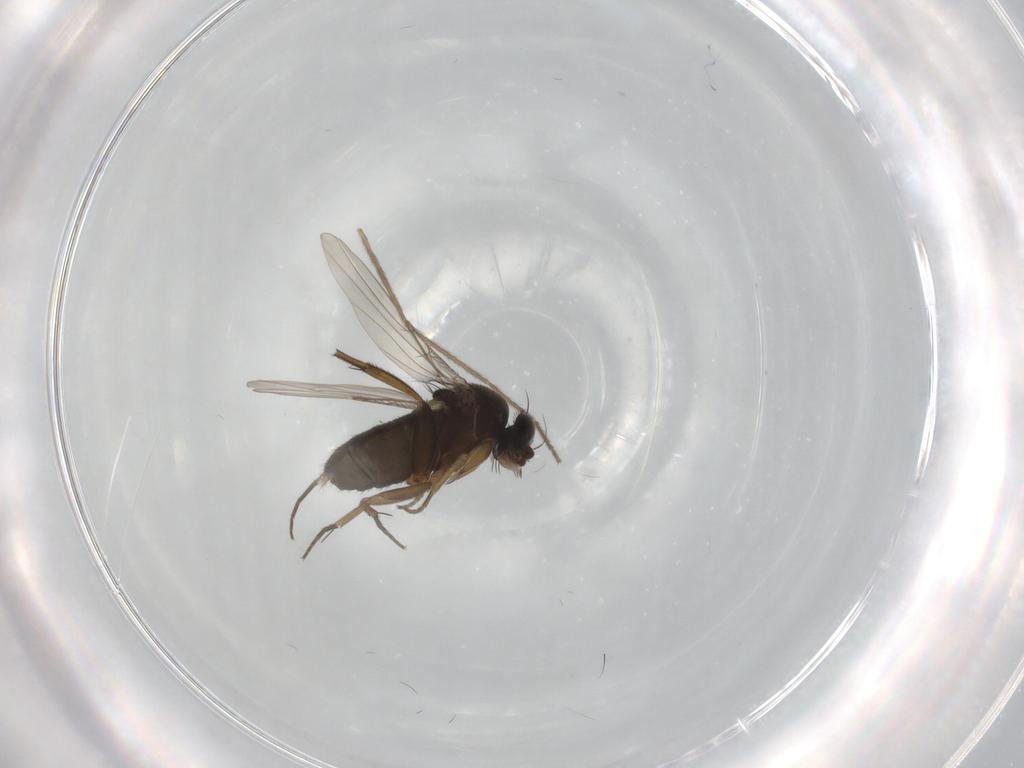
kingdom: Animalia
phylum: Arthropoda
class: Insecta
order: Diptera
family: Phoridae
